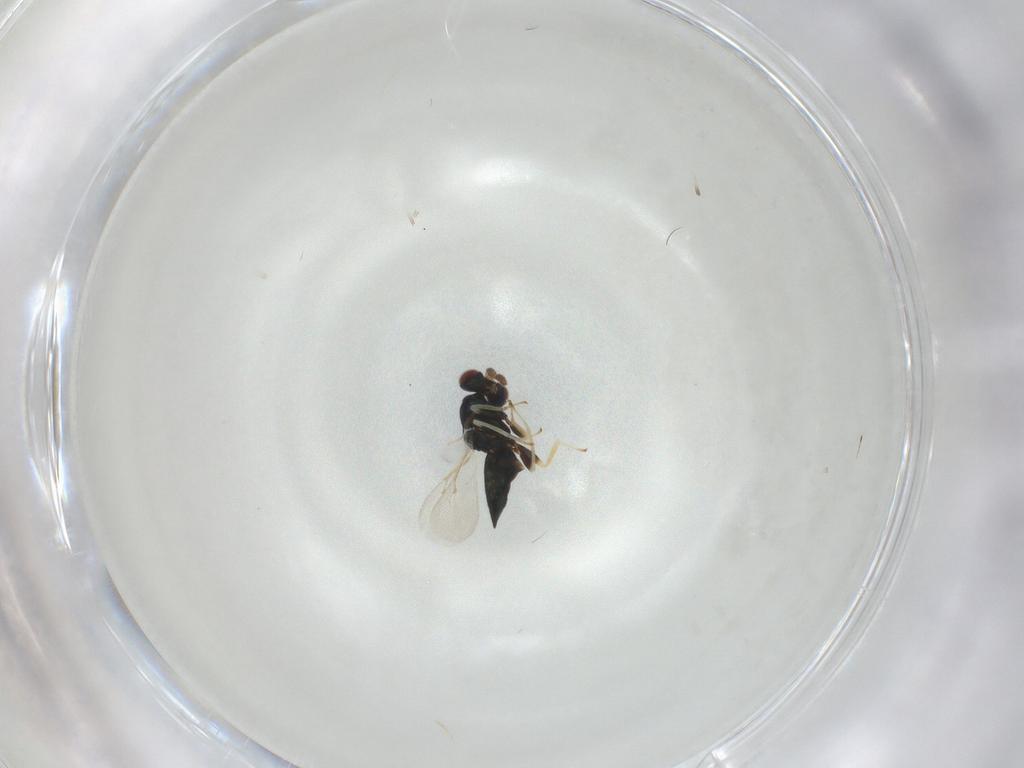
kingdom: Animalia
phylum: Arthropoda
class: Insecta
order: Hymenoptera
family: Eulophidae
